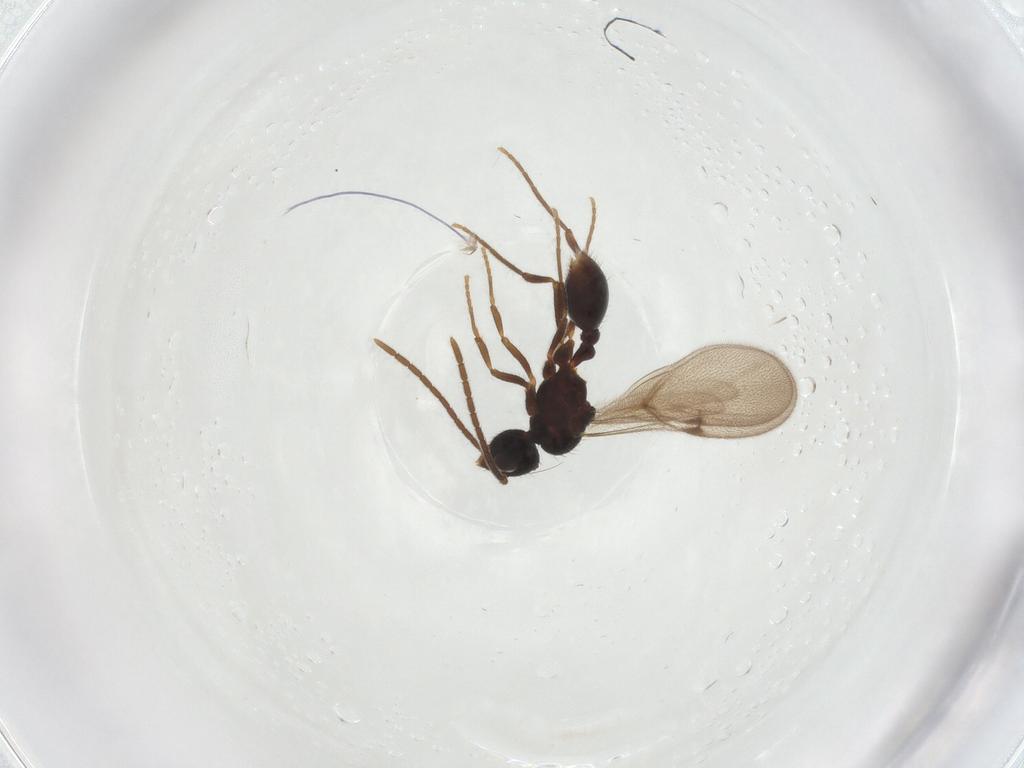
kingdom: Animalia
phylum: Arthropoda
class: Insecta
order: Hymenoptera
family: Formicidae
